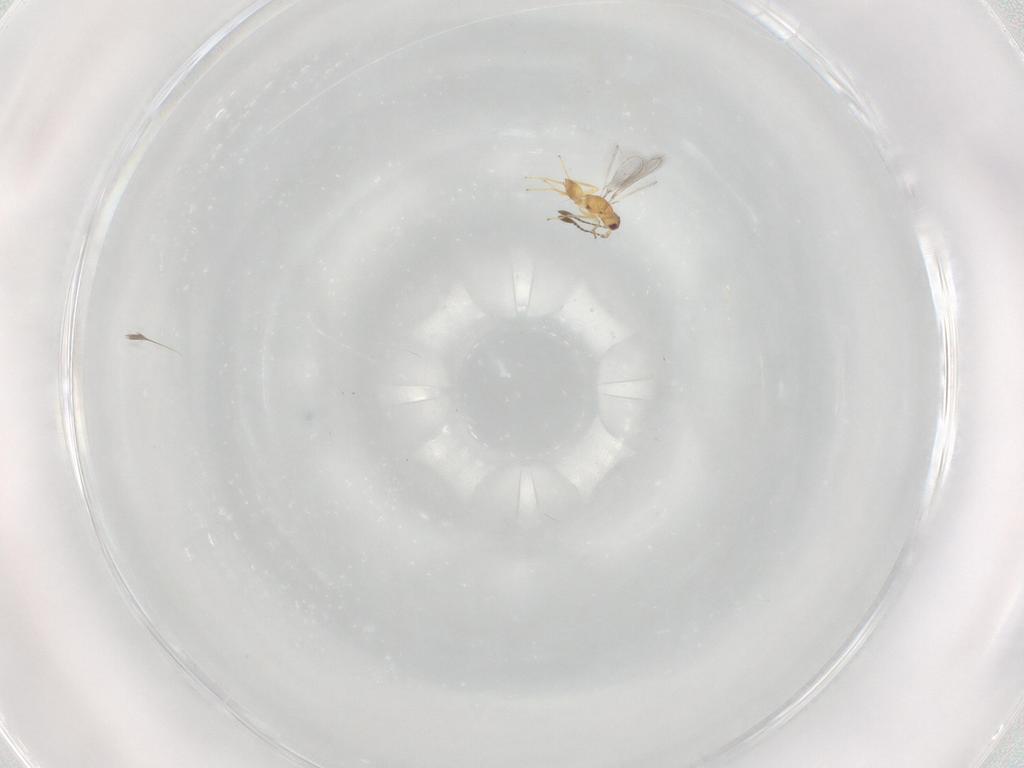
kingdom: Animalia
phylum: Arthropoda
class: Insecta
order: Hymenoptera
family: Mymaridae
